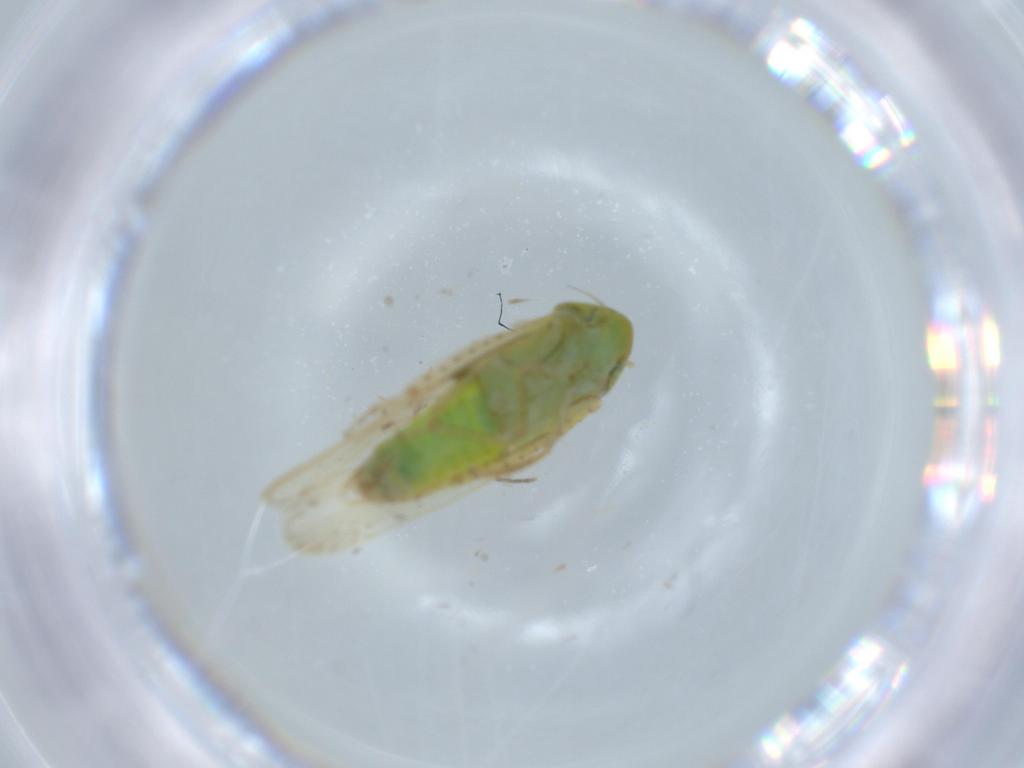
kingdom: Animalia
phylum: Arthropoda
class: Insecta
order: Hemiptera
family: Cicadellidae
